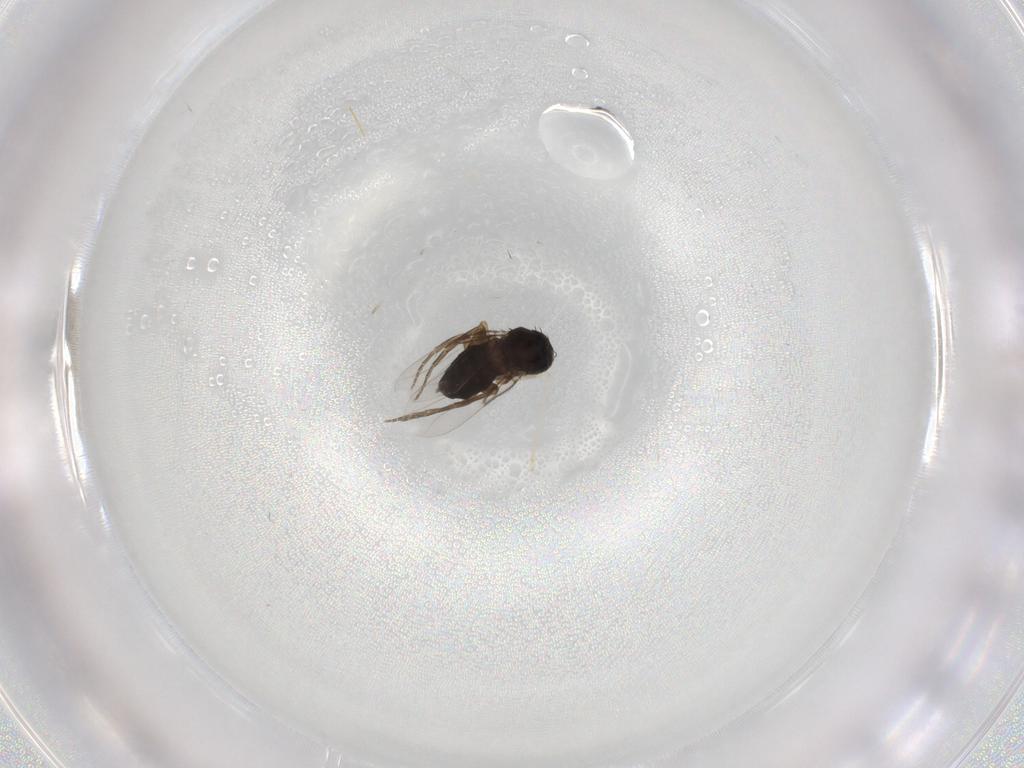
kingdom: Animalia
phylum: Arthropoda
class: Insecta
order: Diptera
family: Phoridae
